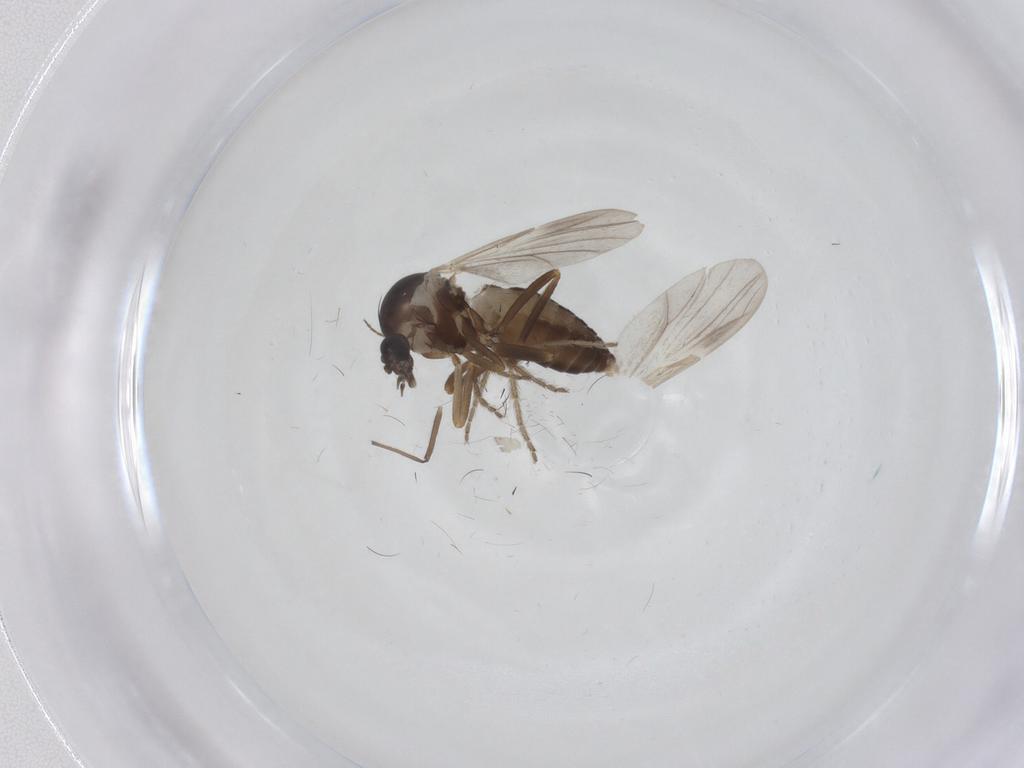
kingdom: Animalia
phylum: Arthropoda
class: Insecta
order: Diptera
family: Ceratopogonidae
